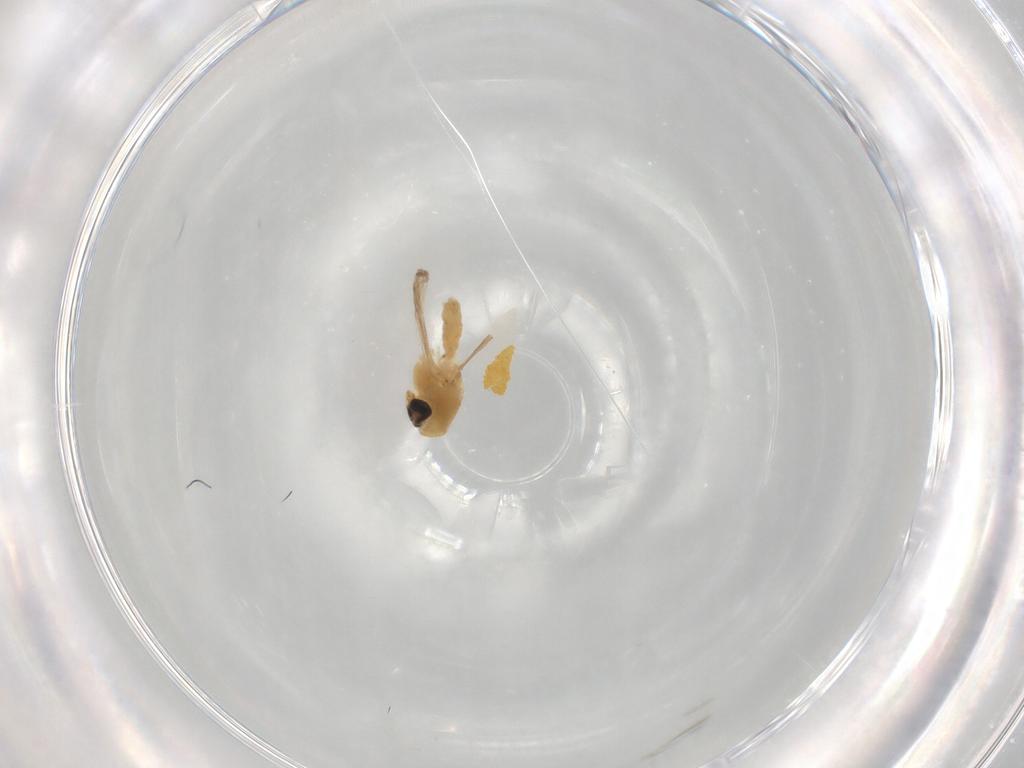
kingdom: Animalia
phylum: Arthropoda
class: Insecta
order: Diptera
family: Chironomidae
